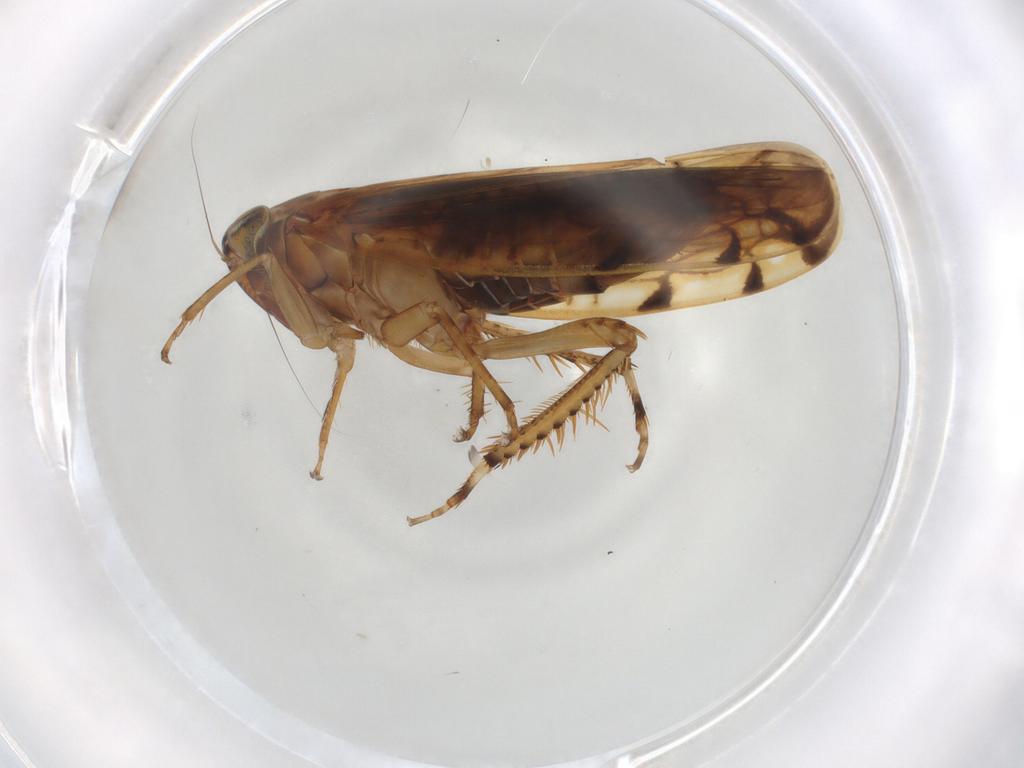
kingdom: Animalia
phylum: Arthropoda
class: Insecta
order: Hemiptera
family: Cicadellidae
